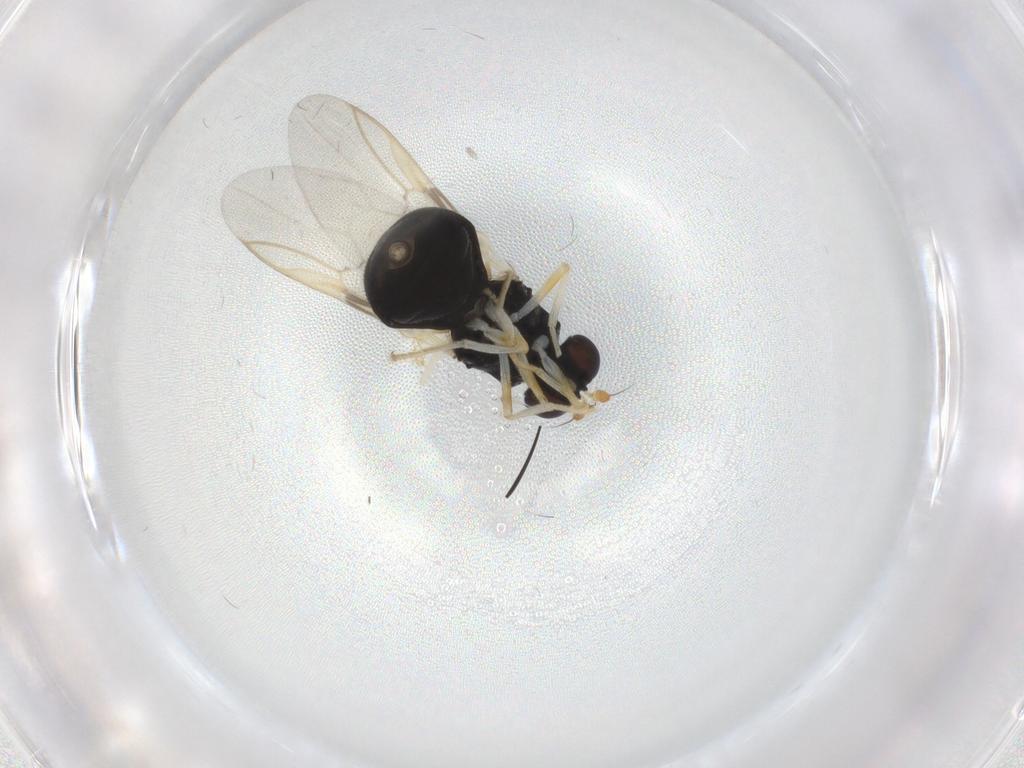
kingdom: Animalia
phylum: Arthropoda
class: Insecta
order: Diptera
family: Stratiomyidae
